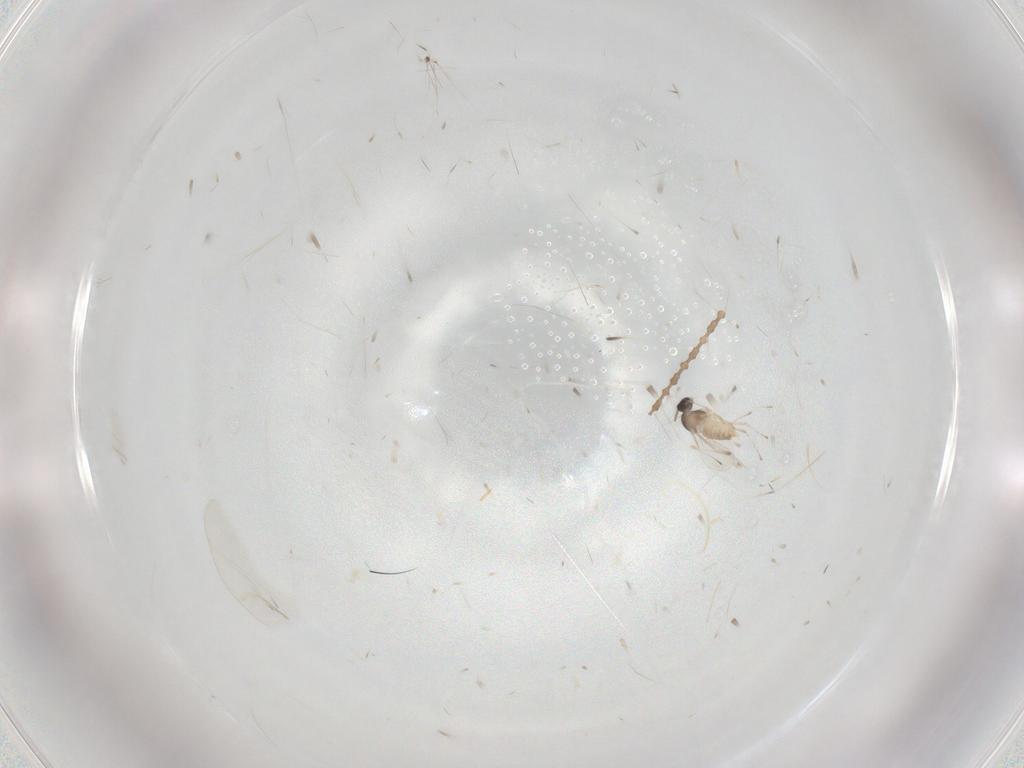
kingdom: Animalia
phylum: Arthropoda
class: Insecta
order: Diptera
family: Cecidomyiidae
